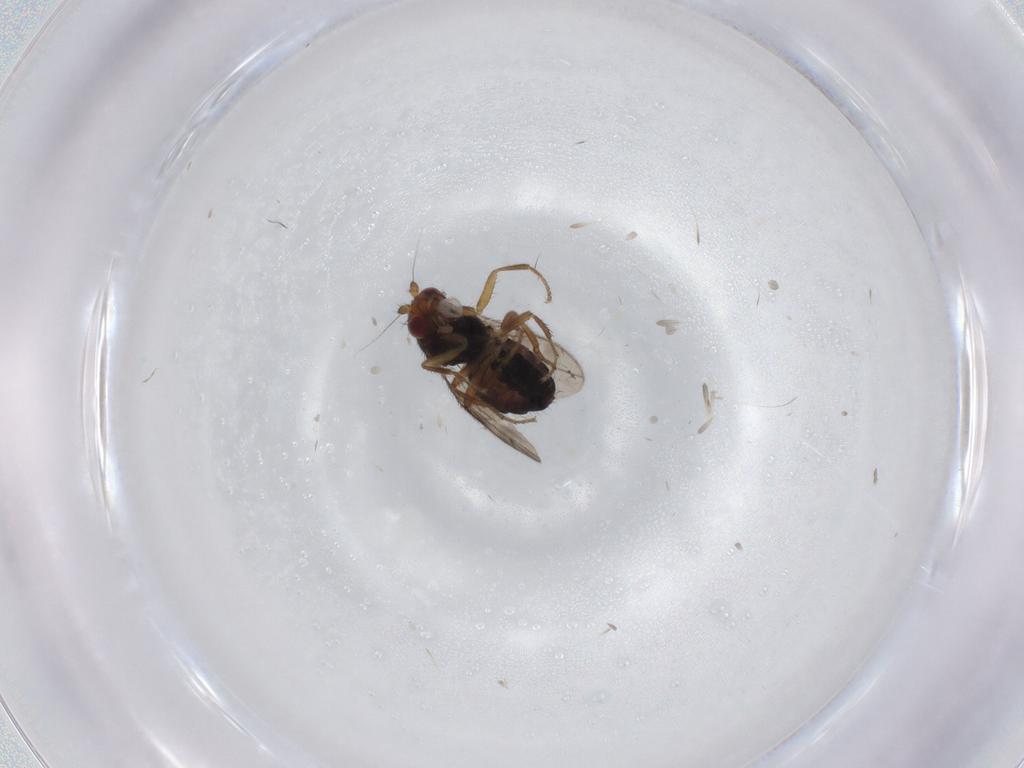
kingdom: Animalia
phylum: Arthropoda
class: Insecta
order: Diptera
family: Sphaeroceridae
